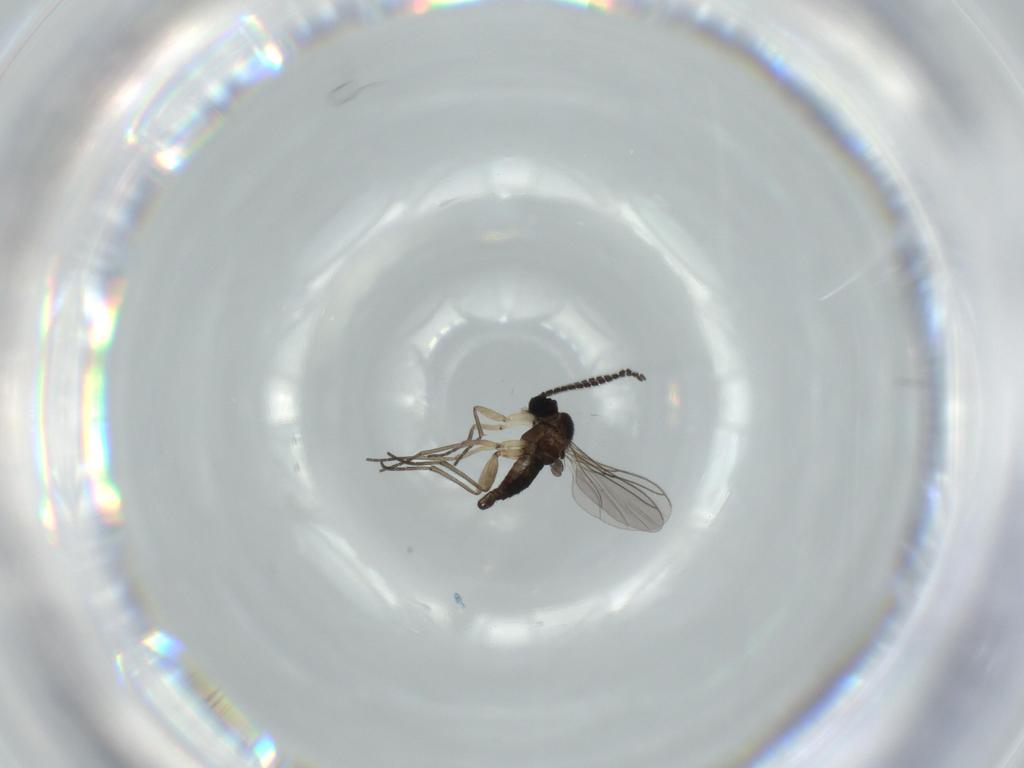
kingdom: Animalia
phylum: Arthropoda
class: Insecta
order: Diptera
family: Sciaridae
